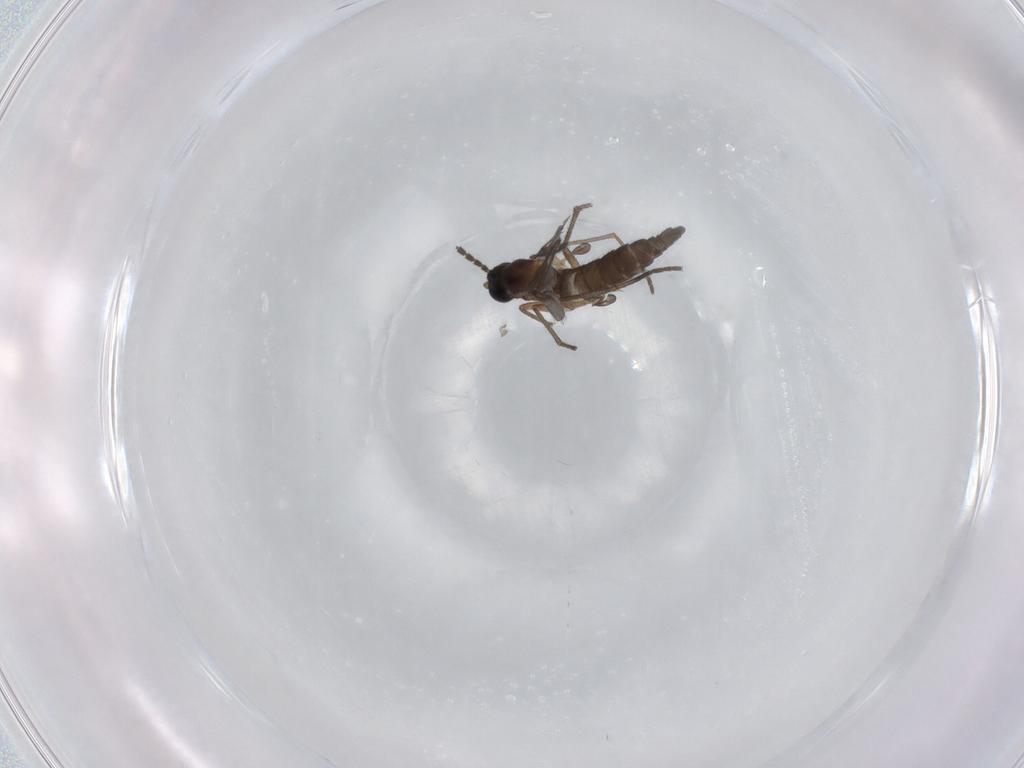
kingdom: Animalia
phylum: Arthropoda
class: Insecta
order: Diptera
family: Sciaridae
